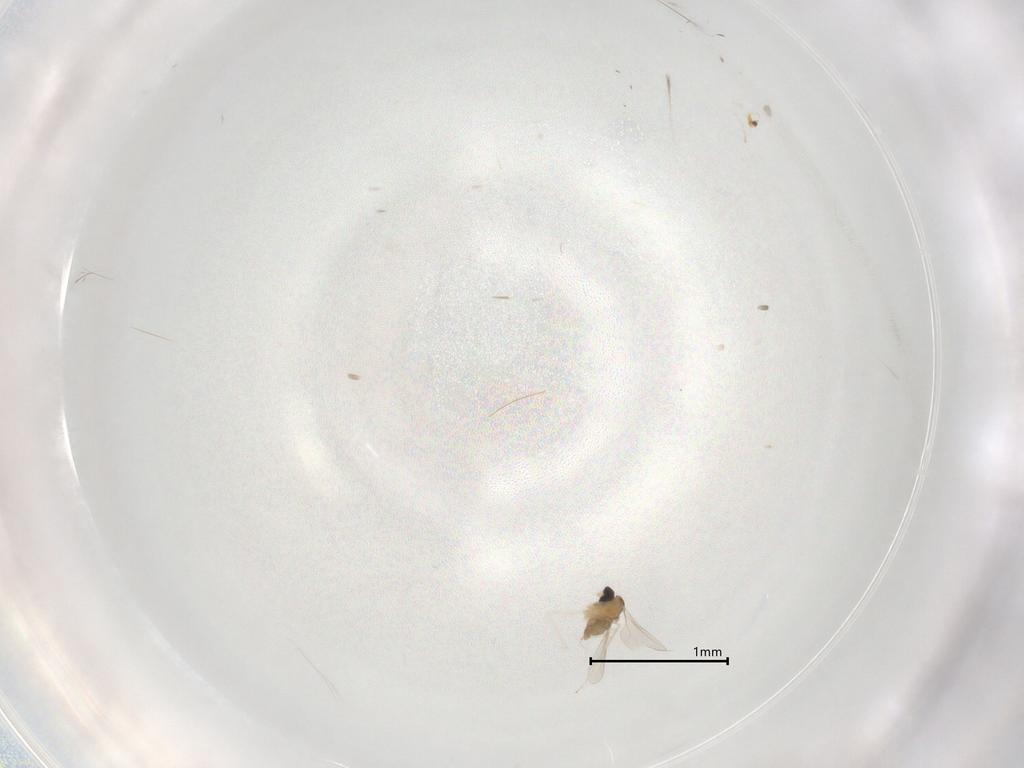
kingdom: Animalia
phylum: Arthropoda
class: Insecta
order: Diptera
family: Cecidomyiidae
